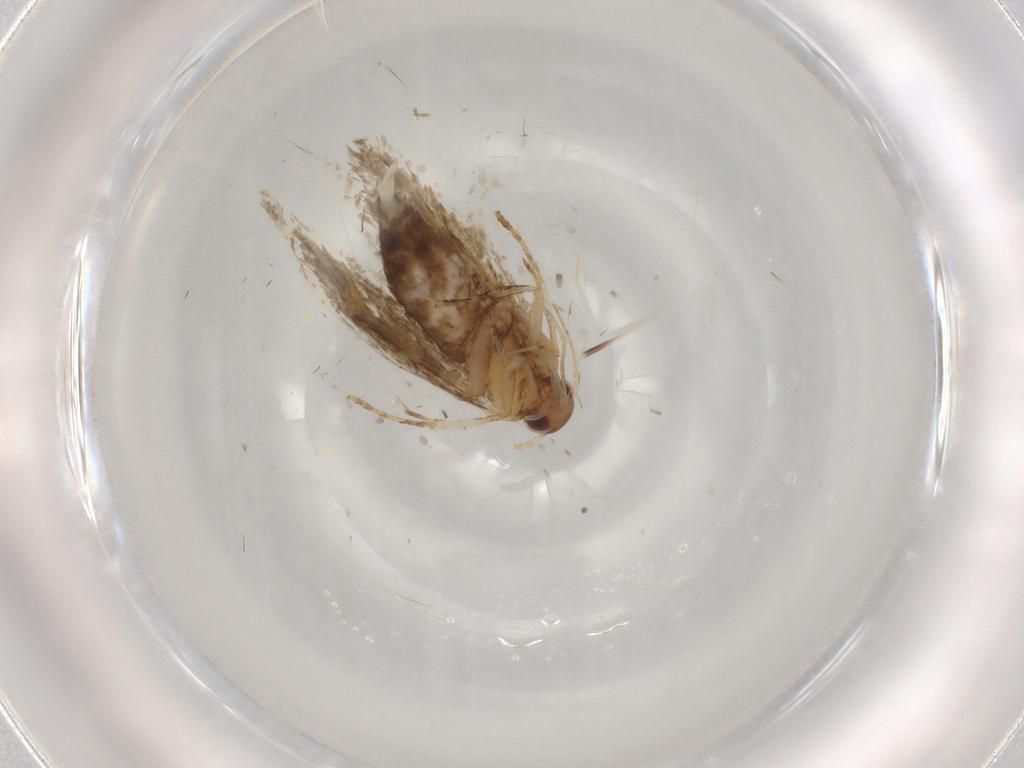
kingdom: Animalia
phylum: Arthropoda
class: Insecta
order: Lepidoptera
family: Oecophoridae
